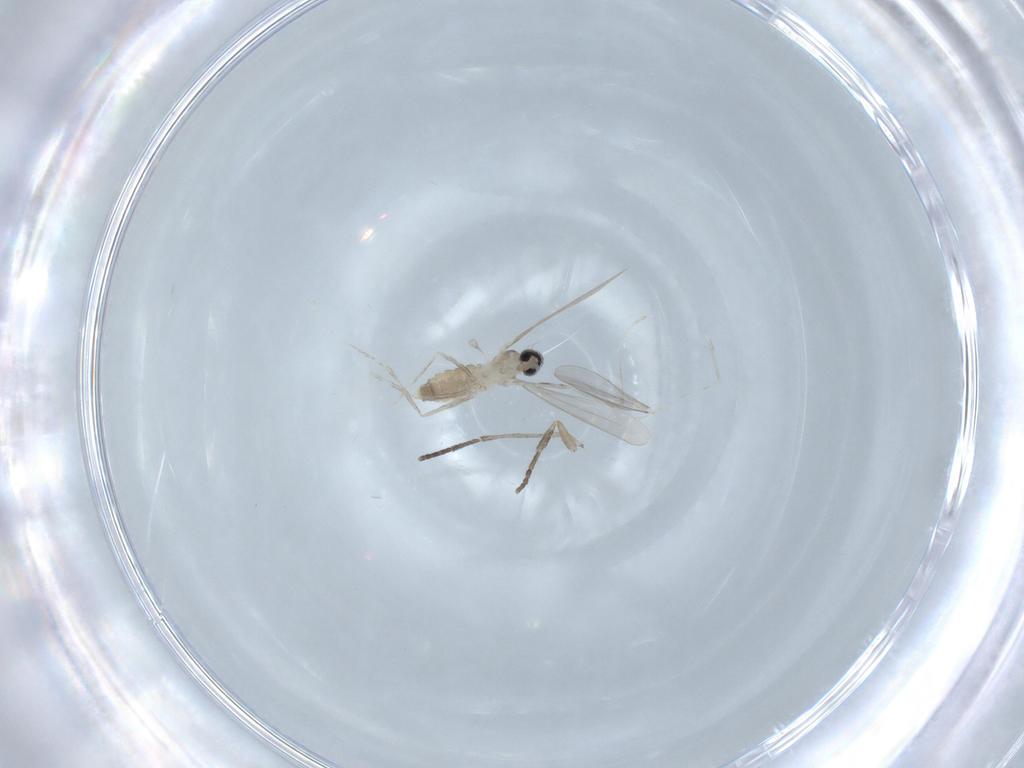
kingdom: Animalia
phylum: Arthropoda
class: Insecta
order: Diptera
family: Cecidomyiidae
